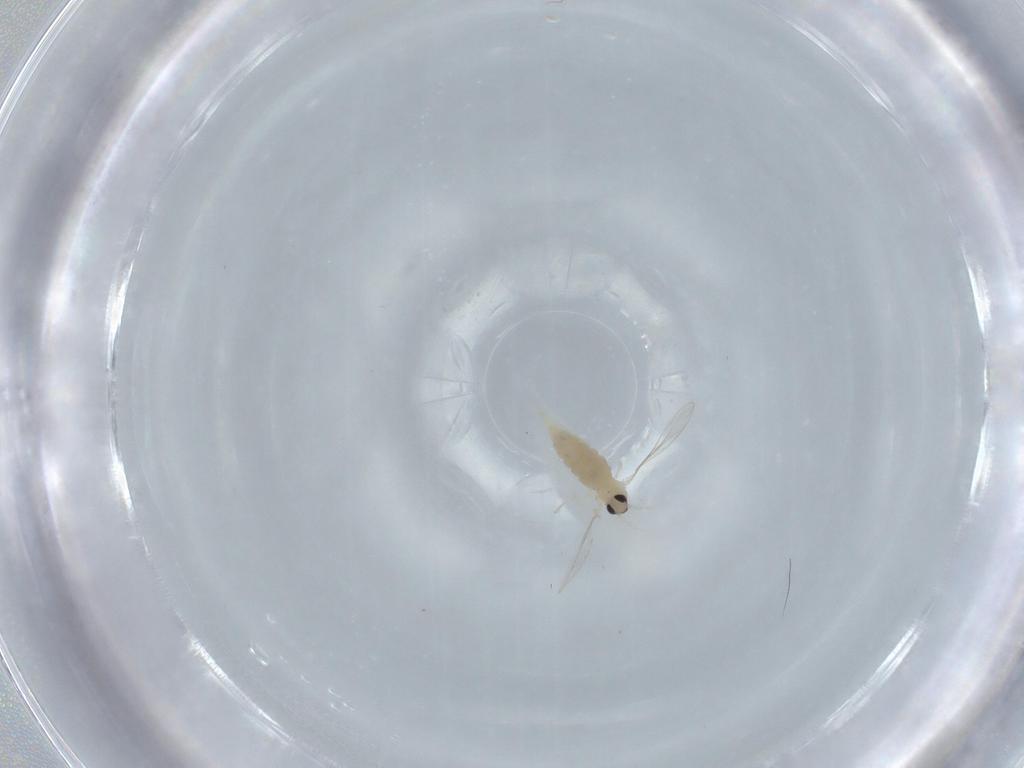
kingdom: Animalia
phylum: Arthropoda
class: Insecta
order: Diptera
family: Cecidomyiidae
